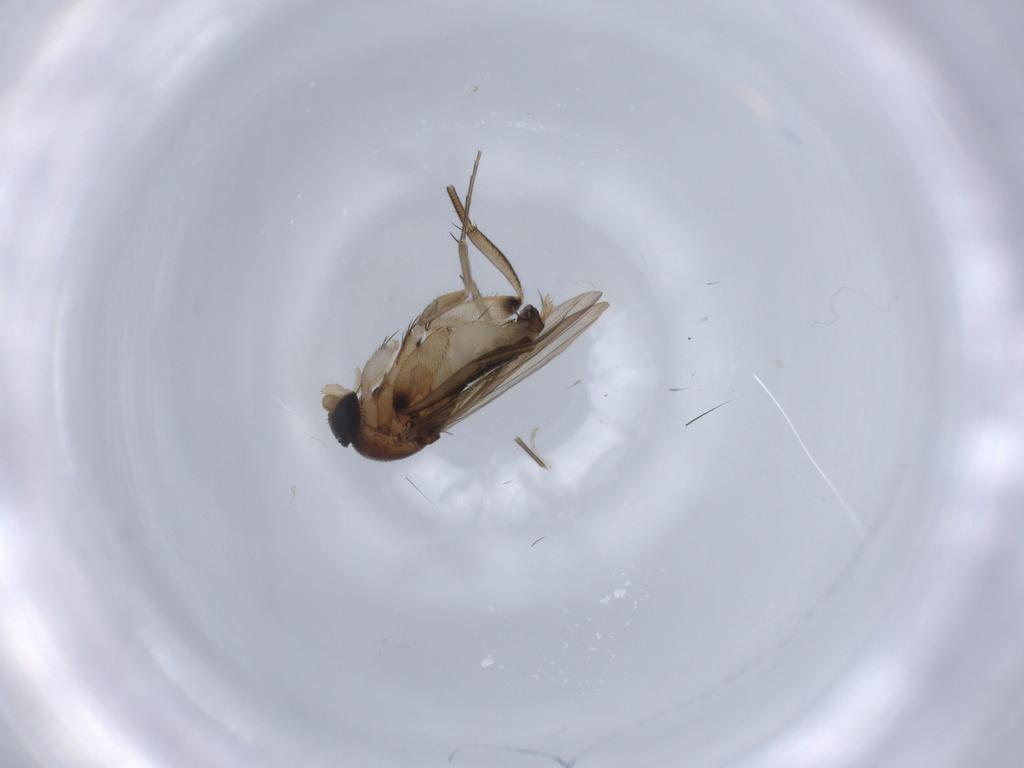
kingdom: Animalia
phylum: Arthropoda
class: Insecta
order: Diptera
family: Phoridae
